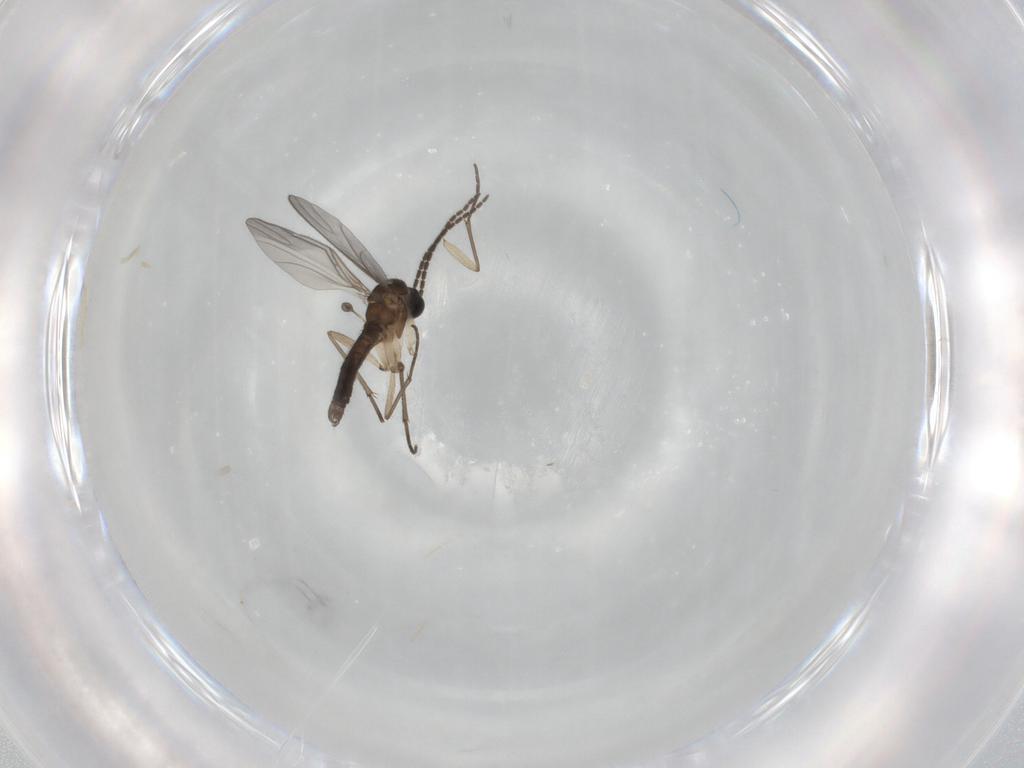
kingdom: Animalia
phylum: Arthropoda
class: Insecta
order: Diptera
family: Sciaridae
